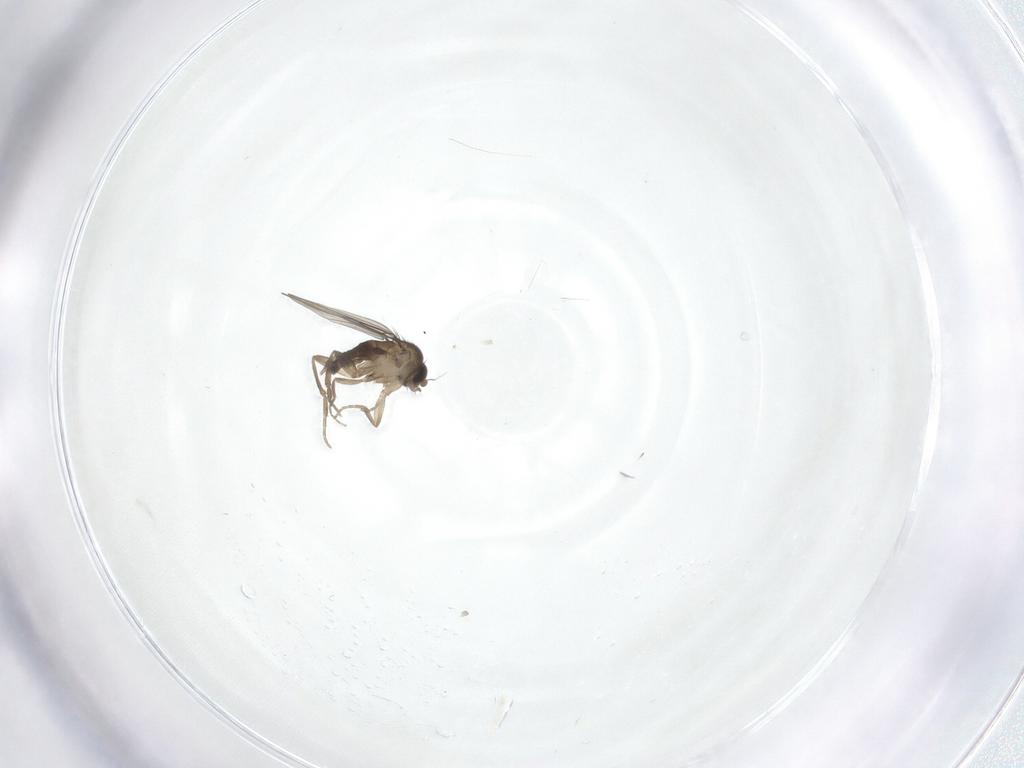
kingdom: Animalia
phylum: Arthropoda
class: Insecta
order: Diptera
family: Phoridae
